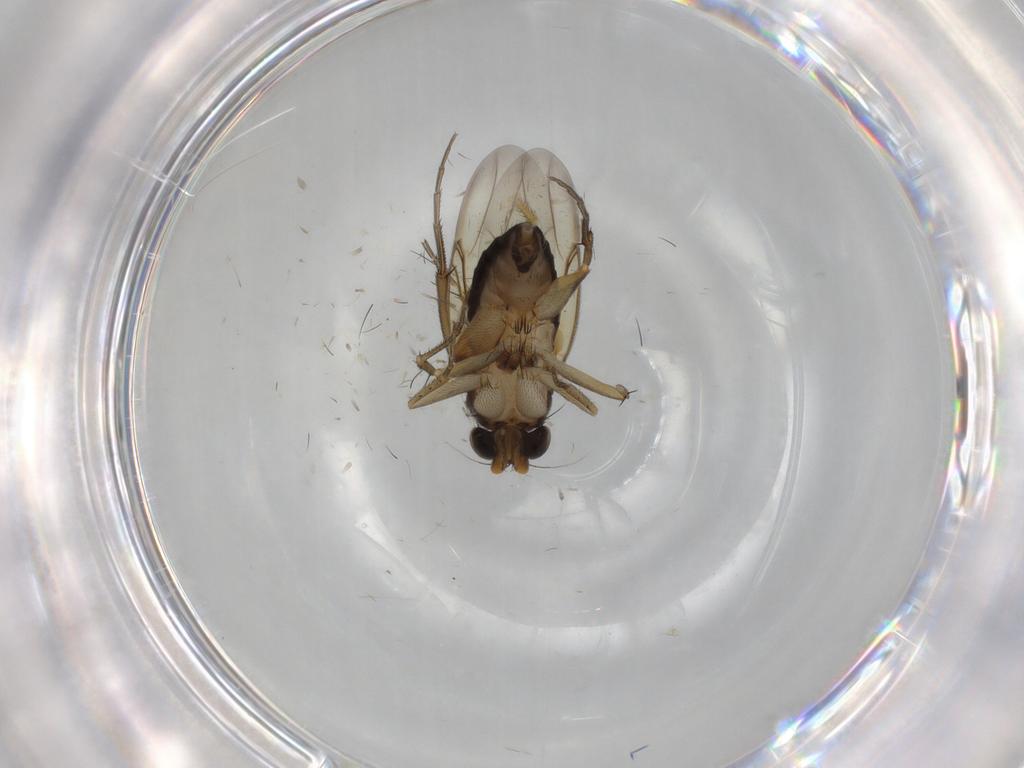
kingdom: Animalia
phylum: Arthropoda
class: Insecta
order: Diptera
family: Phoridae
